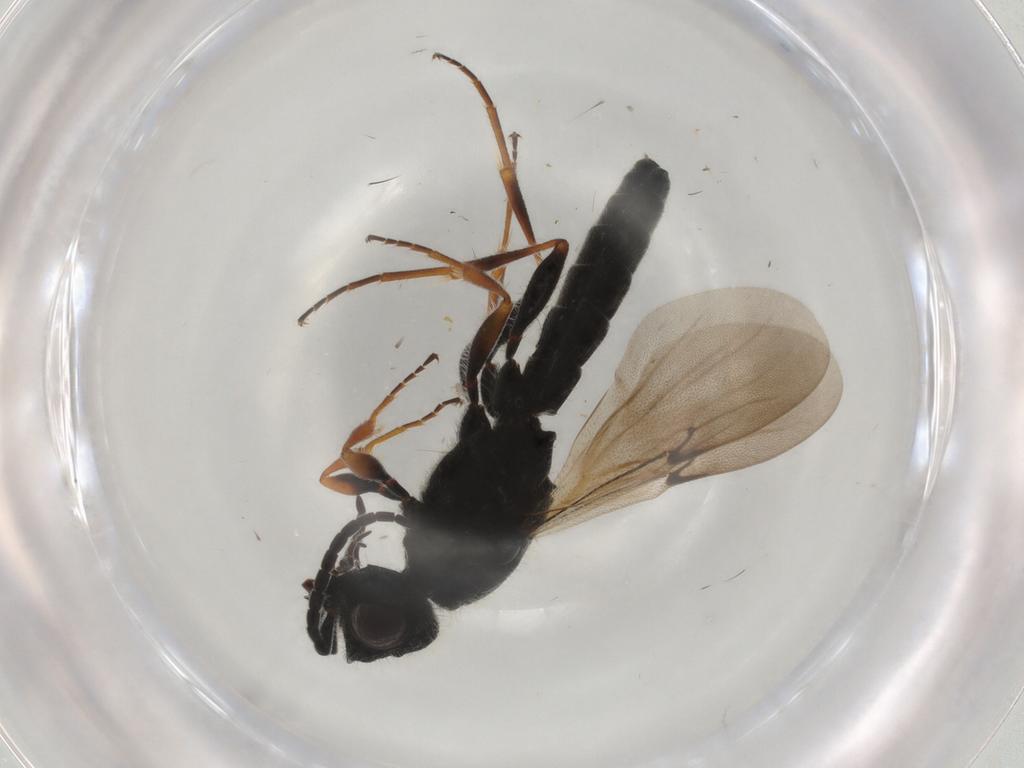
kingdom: Animalia
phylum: Arthropoda
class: Insecta
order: Hymenoptera
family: Scelionidae
